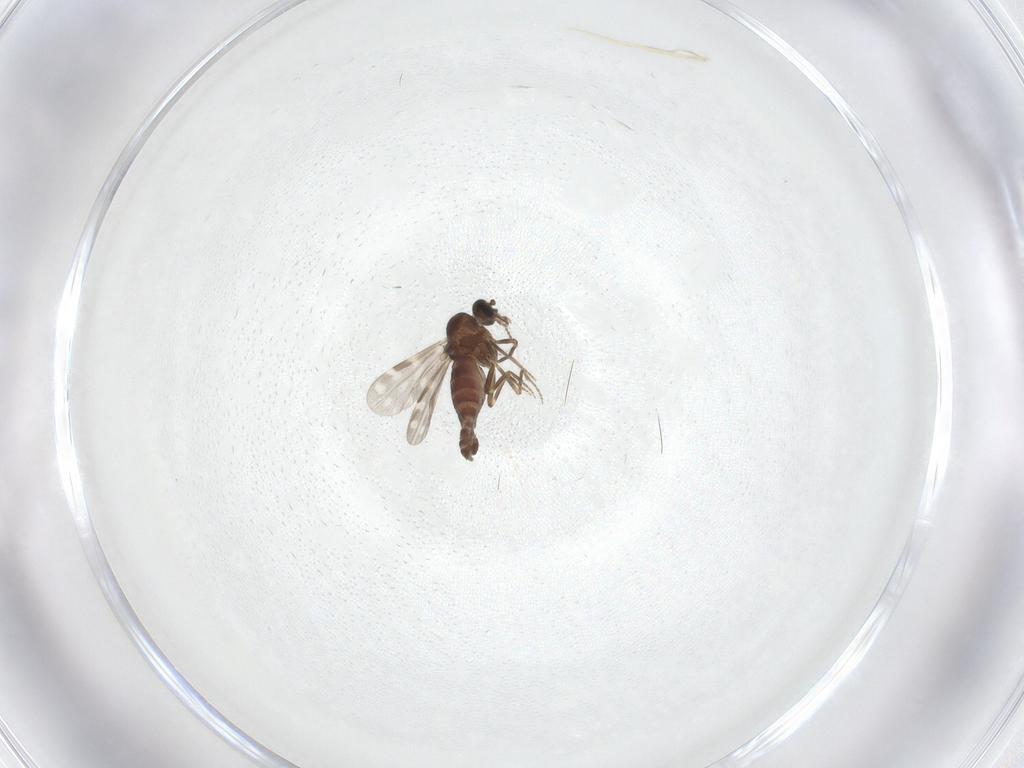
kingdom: Animalia
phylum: Arthropoda
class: Insecta
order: Diptera
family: Ceratopogonidae
